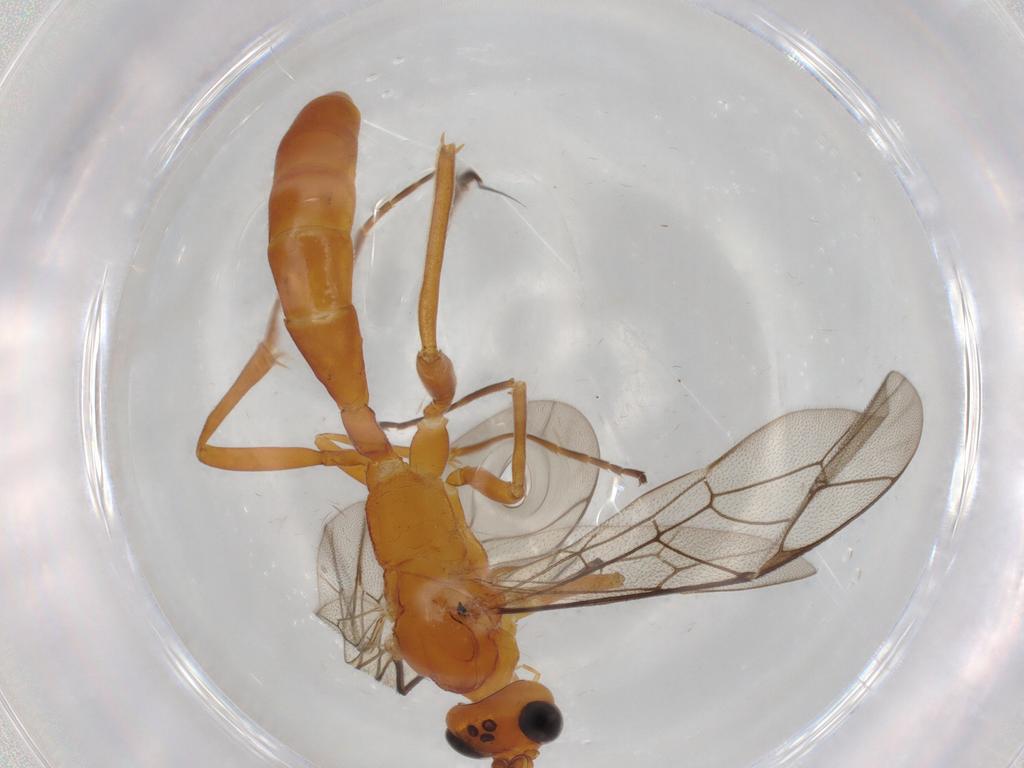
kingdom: Animalia
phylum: Arthropoda
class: Insecta
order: Hymenoptera
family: Ichneumonidae
